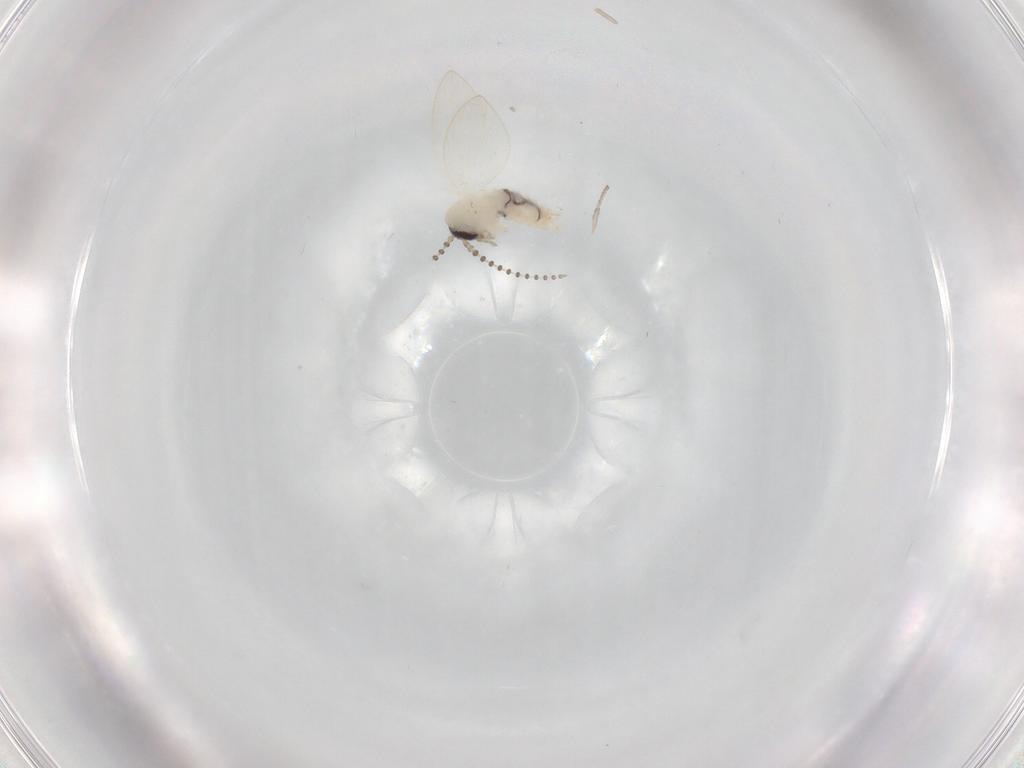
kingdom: Animalia
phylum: Arthropoda
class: Insecta
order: Diptera
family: Psychodidae
